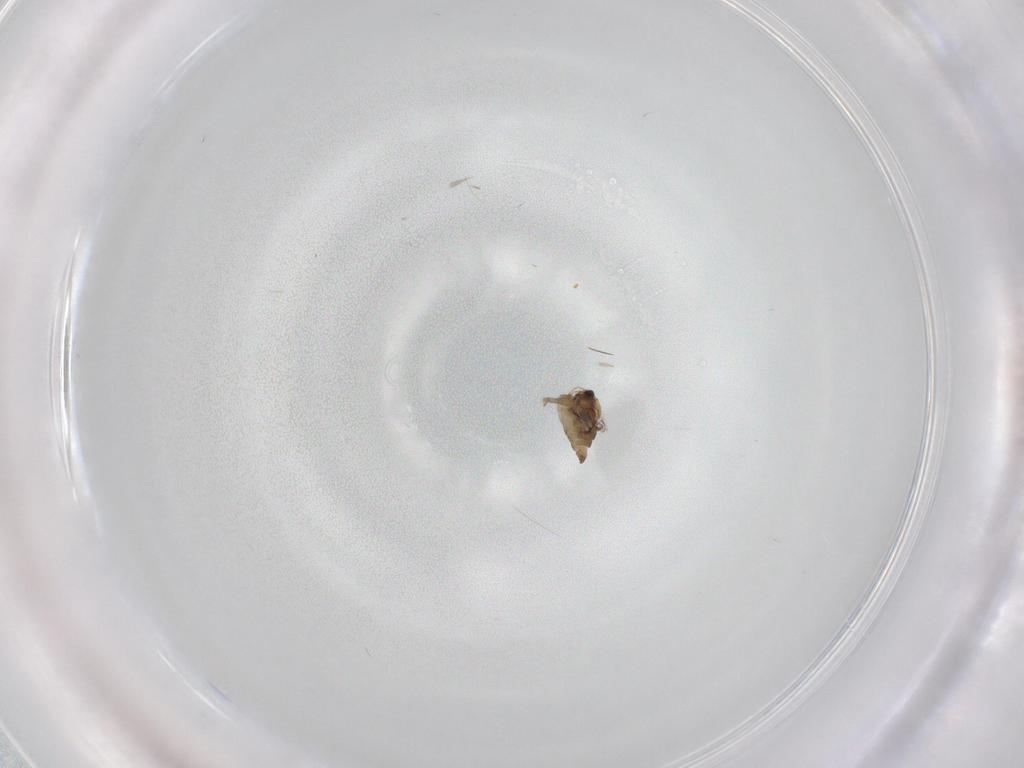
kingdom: Animalia
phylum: Arthropoda
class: Insecta
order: Diptera
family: Chironomidae
